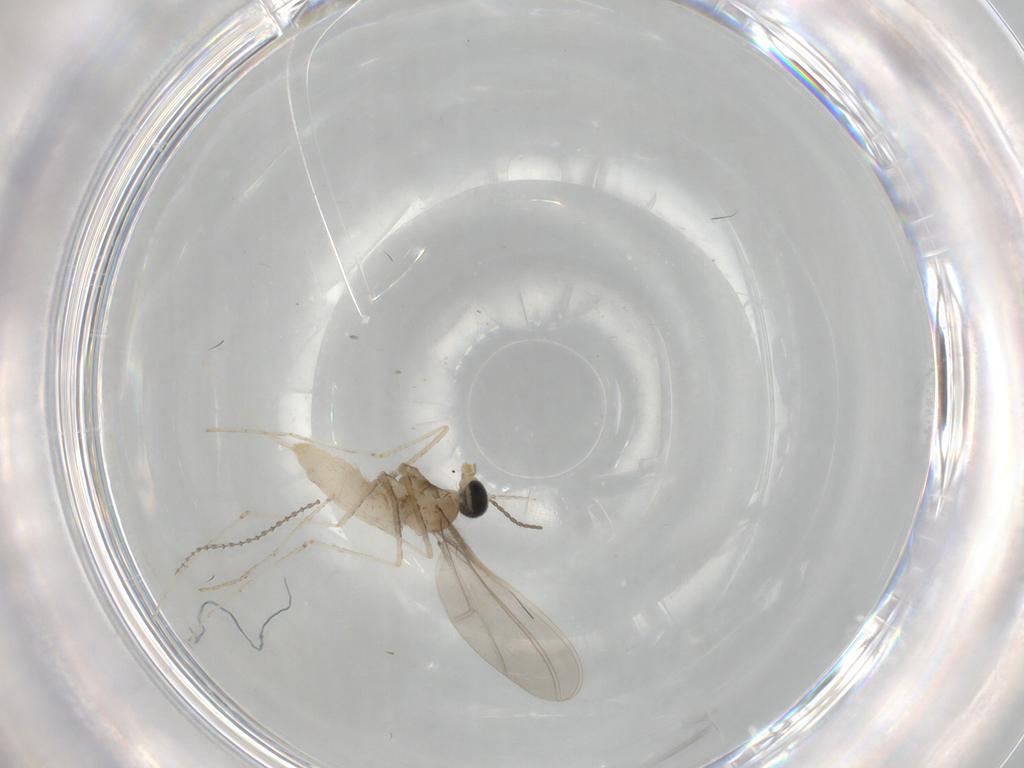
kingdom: Animalia
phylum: Arthropoda
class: Insecta
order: Diptera
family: Cecidomyiidae
